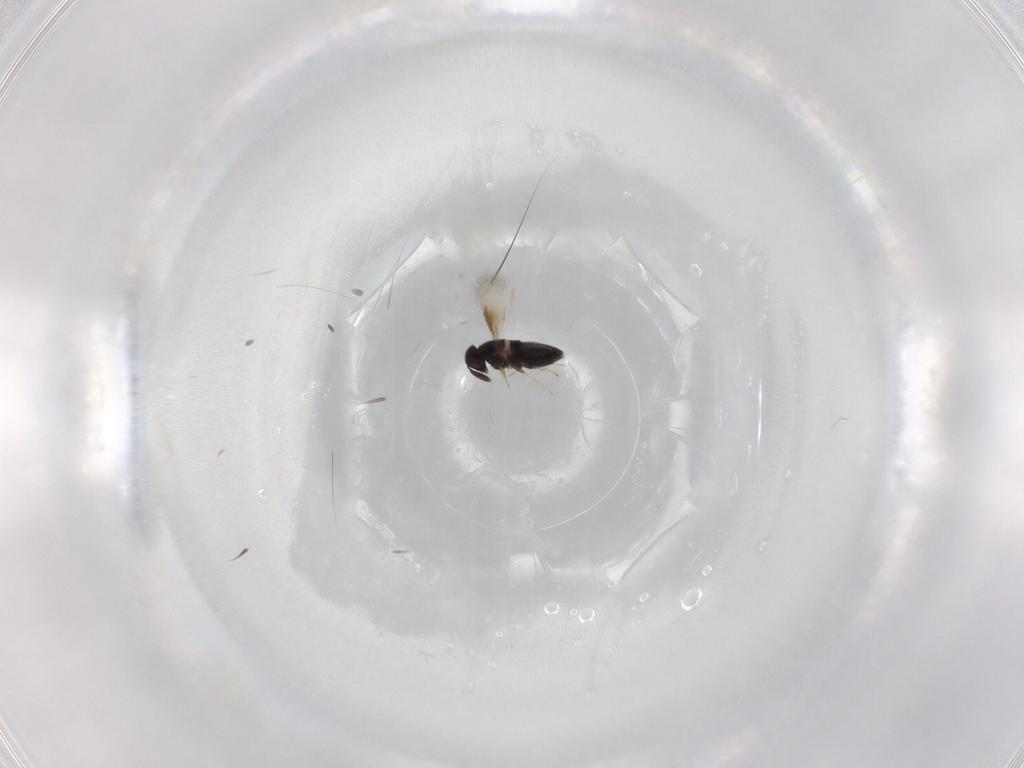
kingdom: Animalia
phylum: Arthropoda
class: Insecta
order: Hymenoptera
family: Signiphoridae
